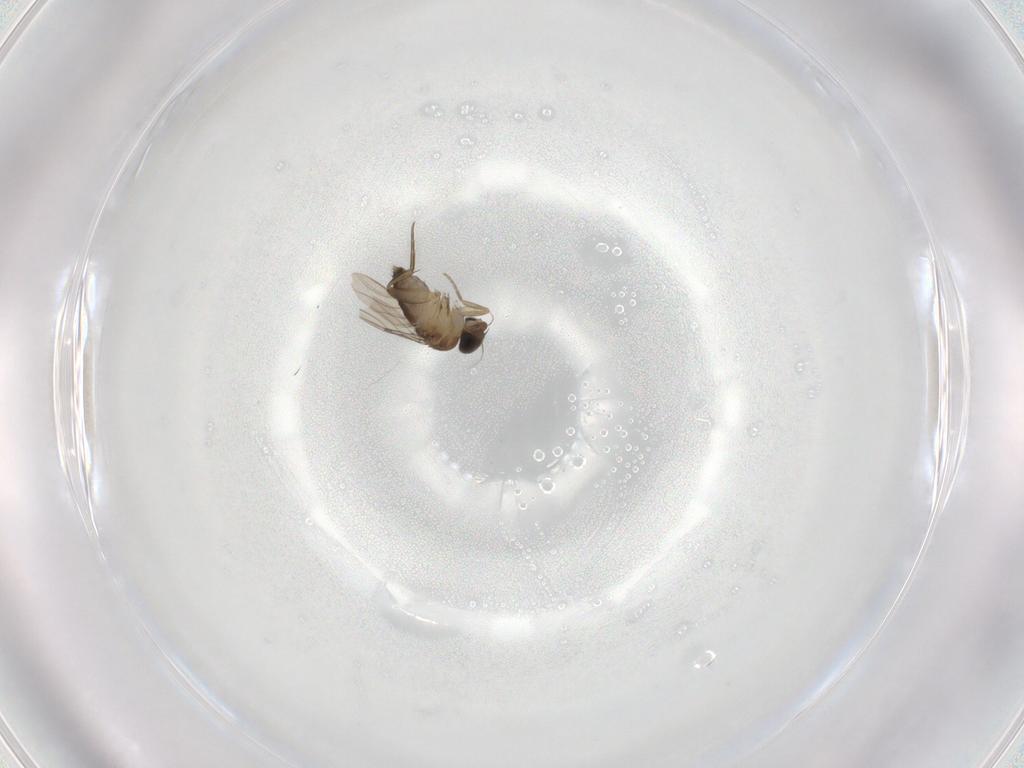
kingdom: Animalia
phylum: Arthropoda
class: Insecta
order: Diptera
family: Phoridae
